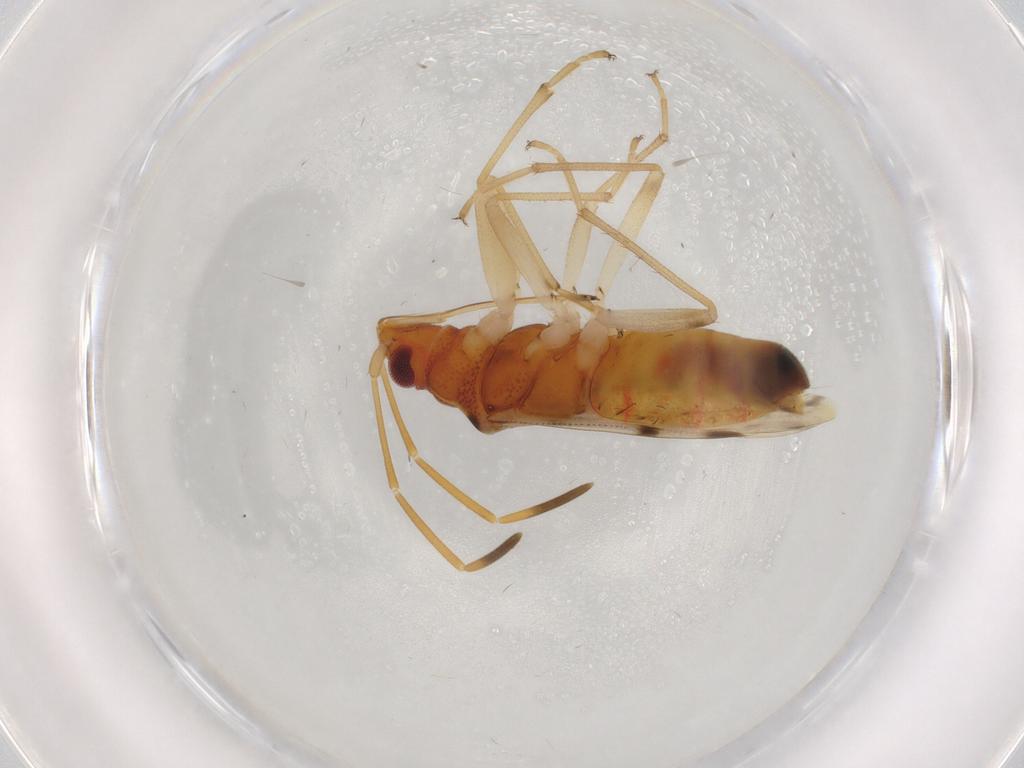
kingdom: Animalia
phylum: Arthropoda
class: Insecta
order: Hemiptera
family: Rhyparochromidae
